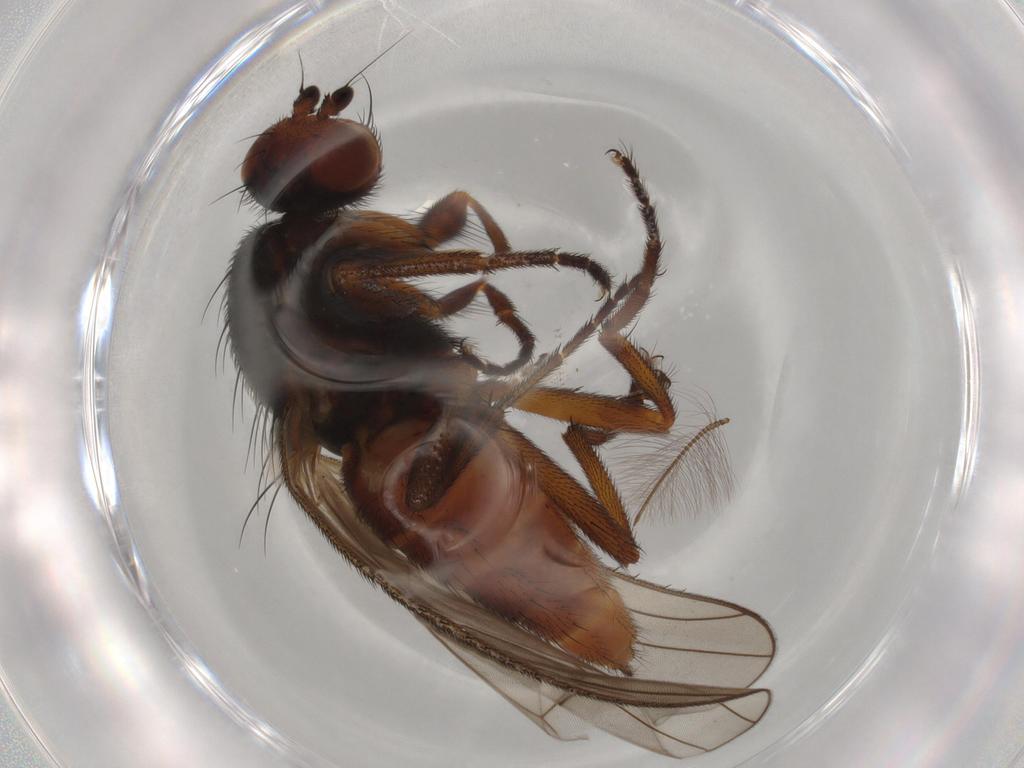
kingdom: Animalia
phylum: Arthropoda
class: Insecta
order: Diptera
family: Heleomyzidae
